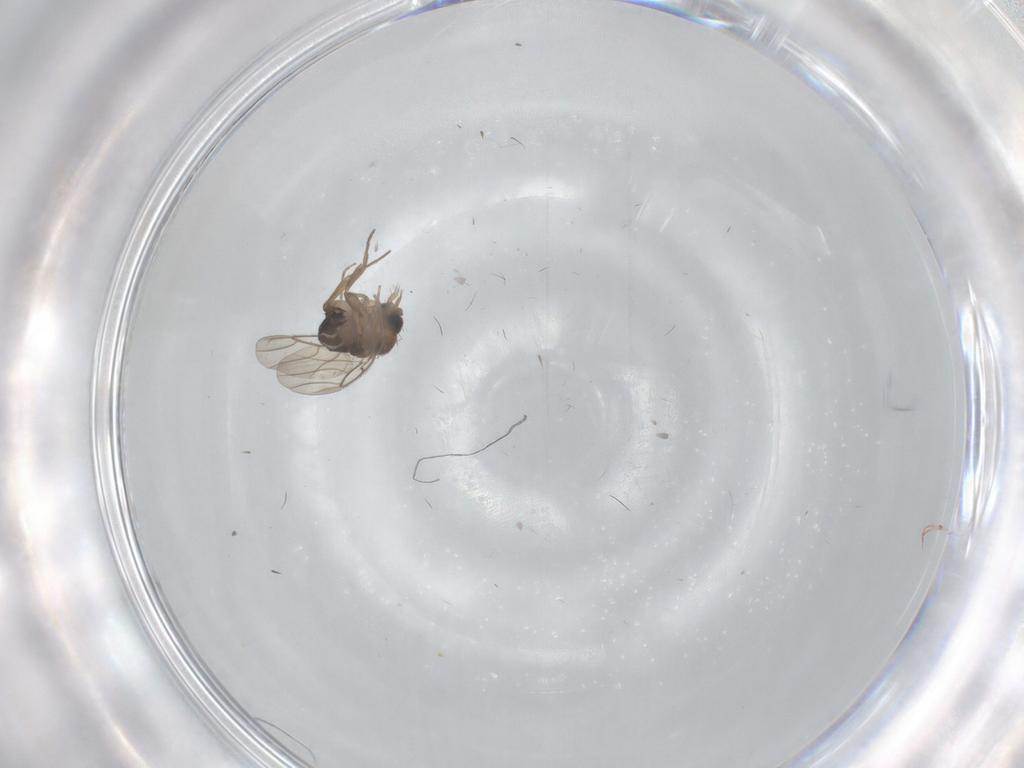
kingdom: Animalia
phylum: Arthropoda
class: Insecta
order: Diptera
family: Phoridae
